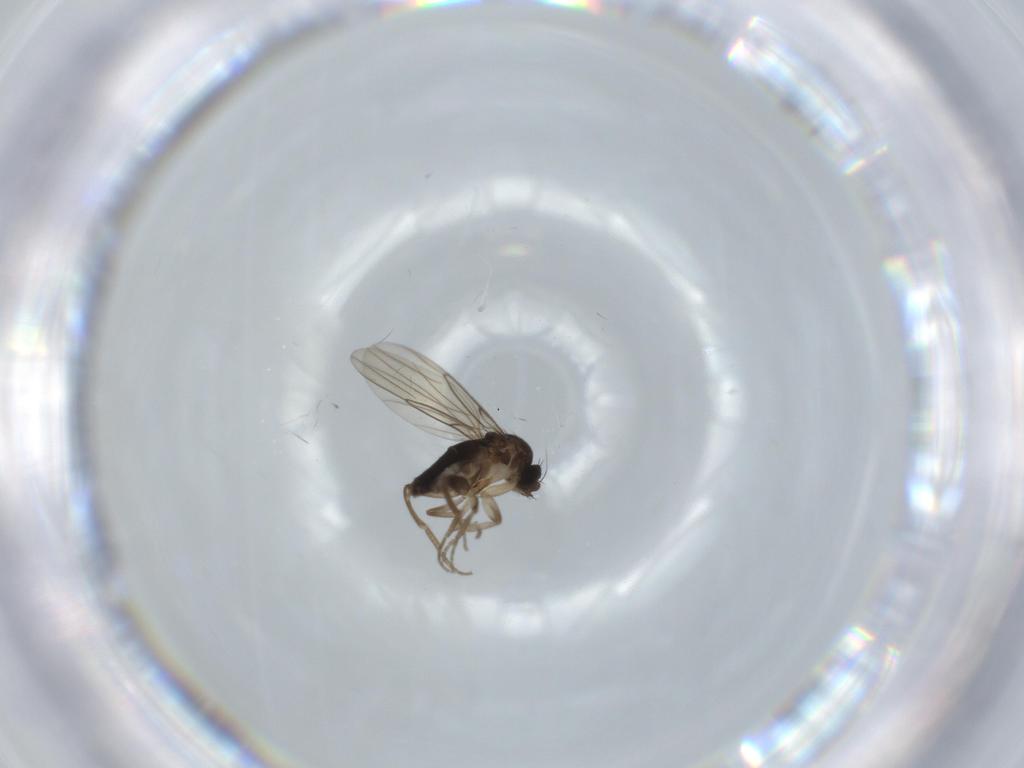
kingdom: Animalia
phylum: Arthropoda
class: Insecta
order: Diptera
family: Phoridae
